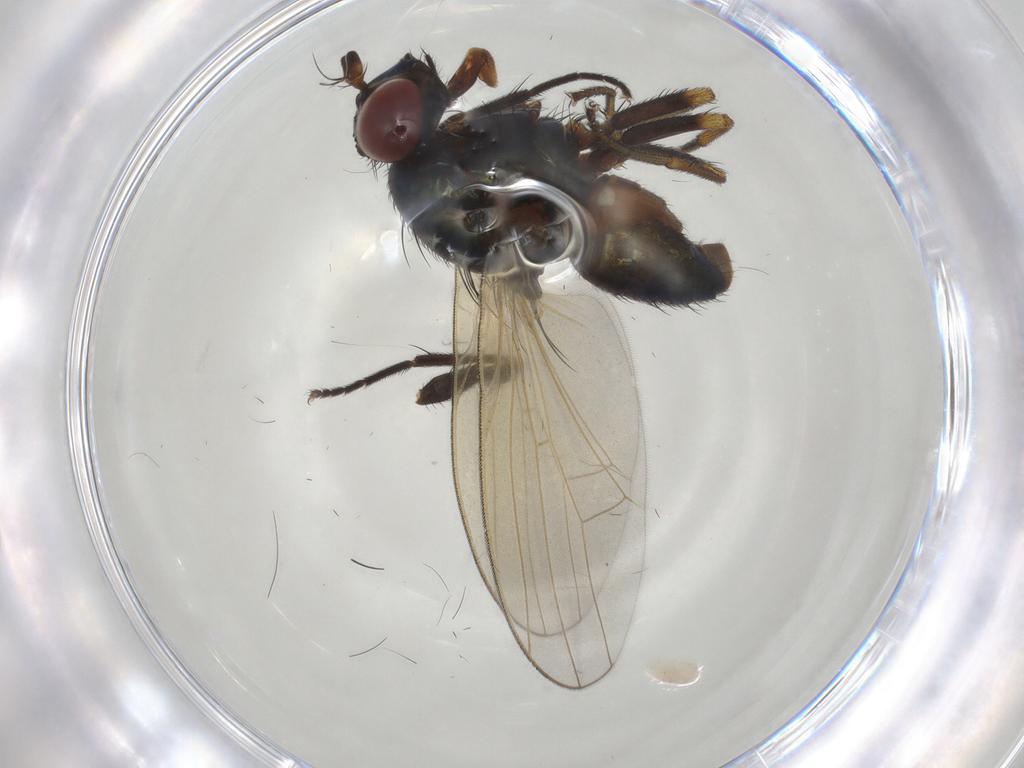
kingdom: Animalia
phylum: Arthropoda
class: Insecta
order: Diptera
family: Lauxaniidae
